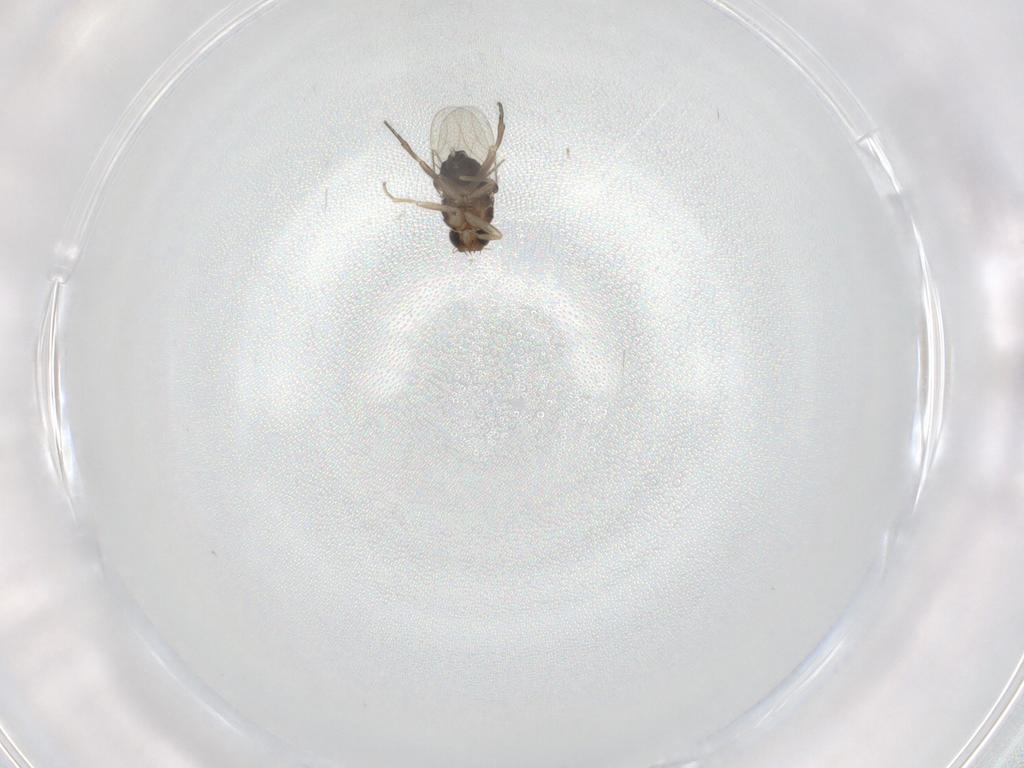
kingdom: Animalia
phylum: Arthropoda
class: Insecta
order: Diptera
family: Phoridae
